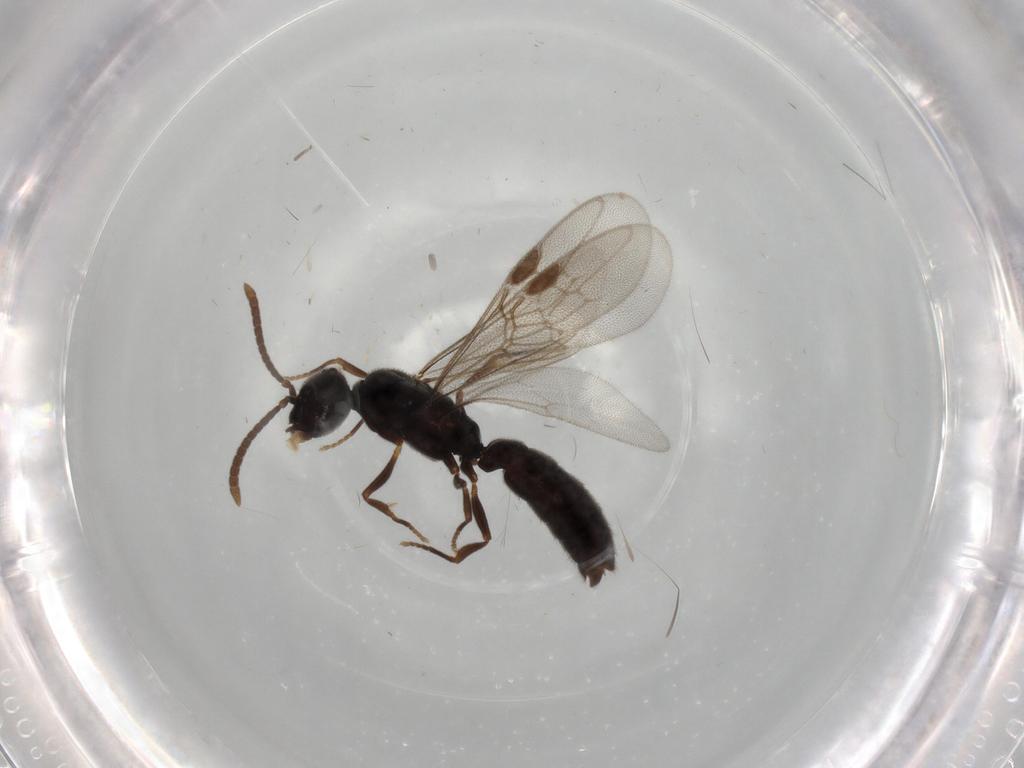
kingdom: Animalia
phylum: Arthropoda
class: Insecta
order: Hymenoptera
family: Formicidae
